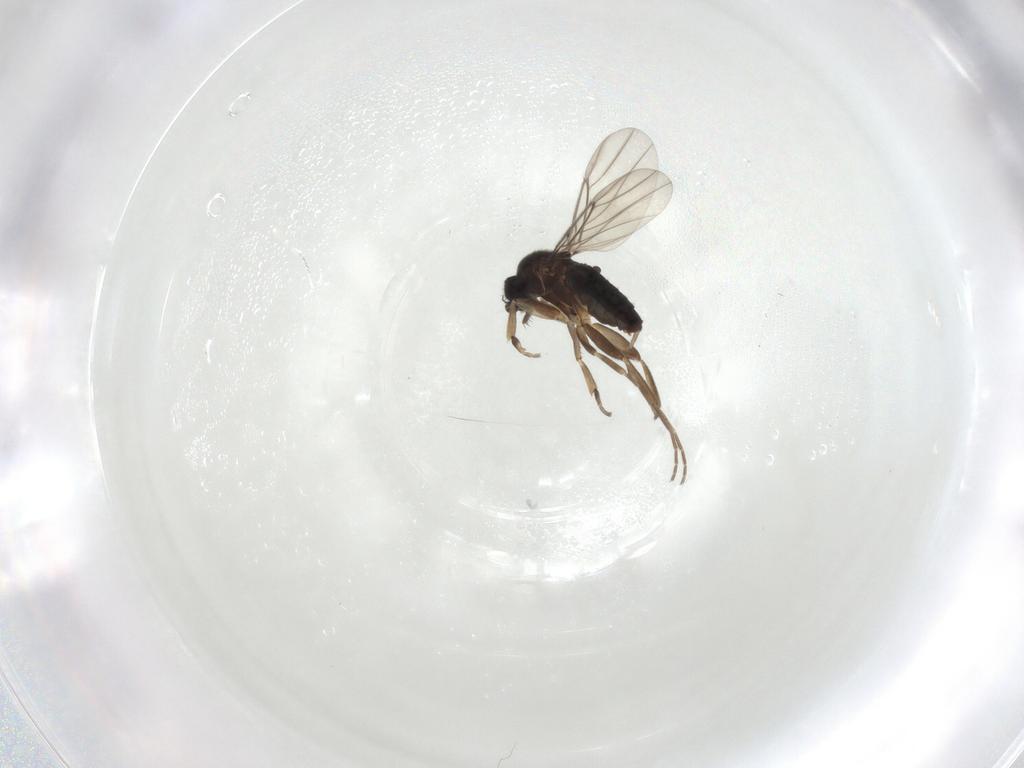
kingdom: Animalia
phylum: Arthropoda
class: Insecta
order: Diptera
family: Phoridae
